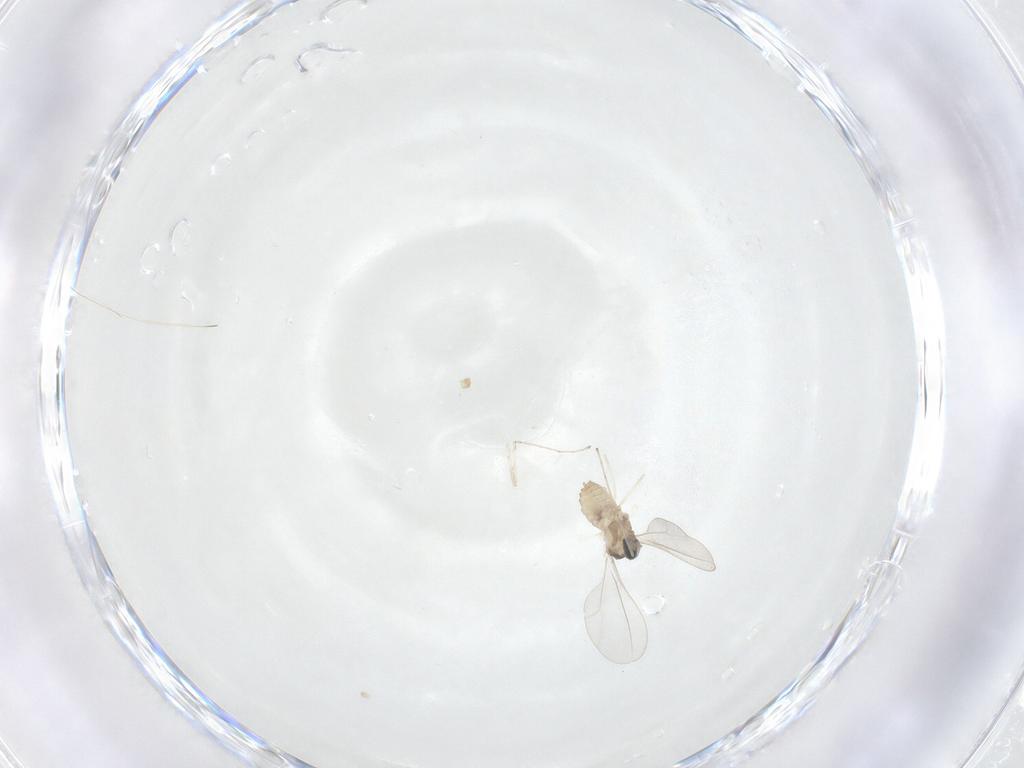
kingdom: Animalia
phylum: Arthropoda
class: Insecta
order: Diptera
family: Cecidomyiidae
